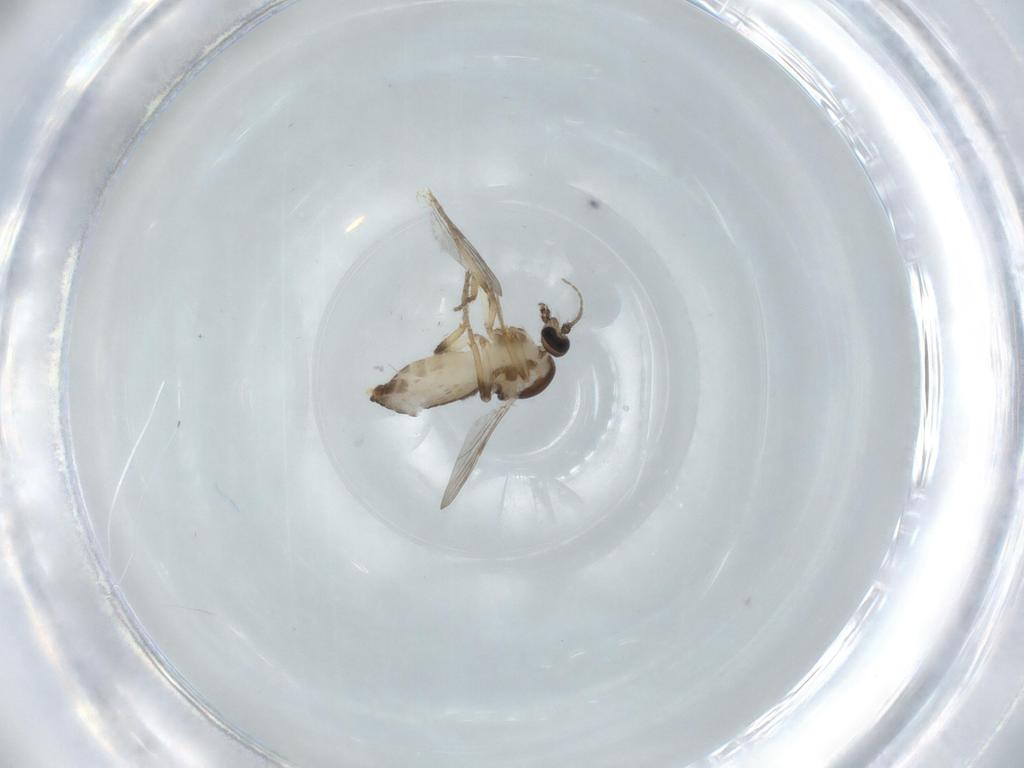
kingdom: Animalia
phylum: Arthropoda
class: Insecta
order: Diptera
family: Ceratopogonidae
